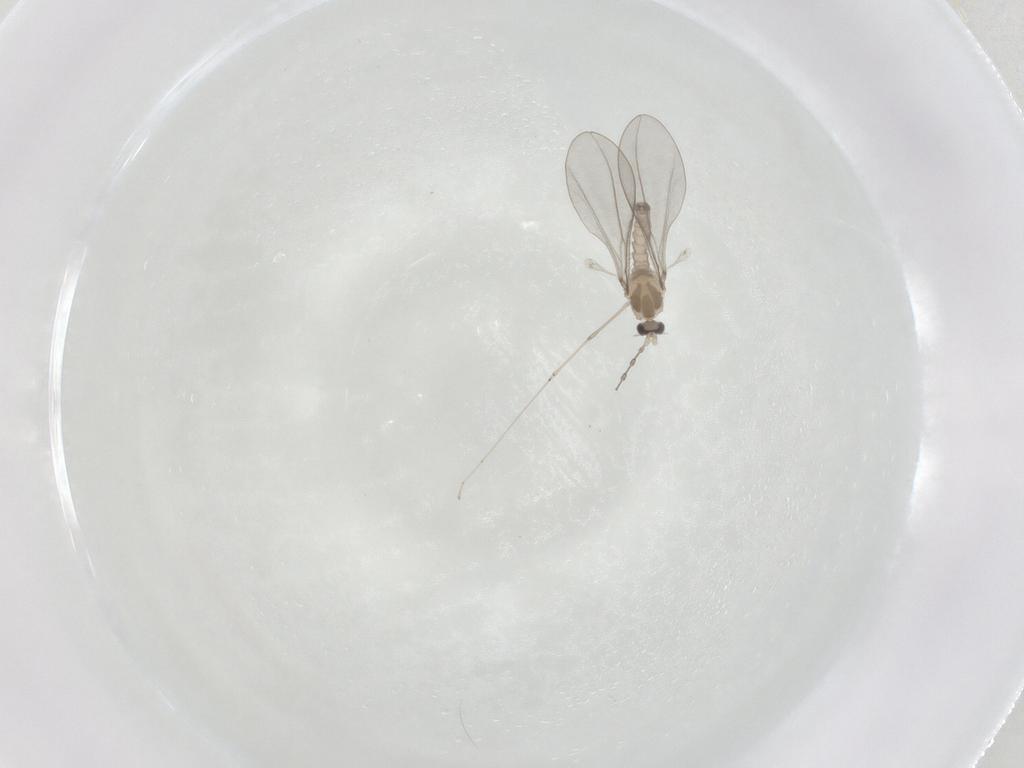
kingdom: Animalia
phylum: Arthropoda
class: Insecta
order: Diptera
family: Cecidomyiidae
